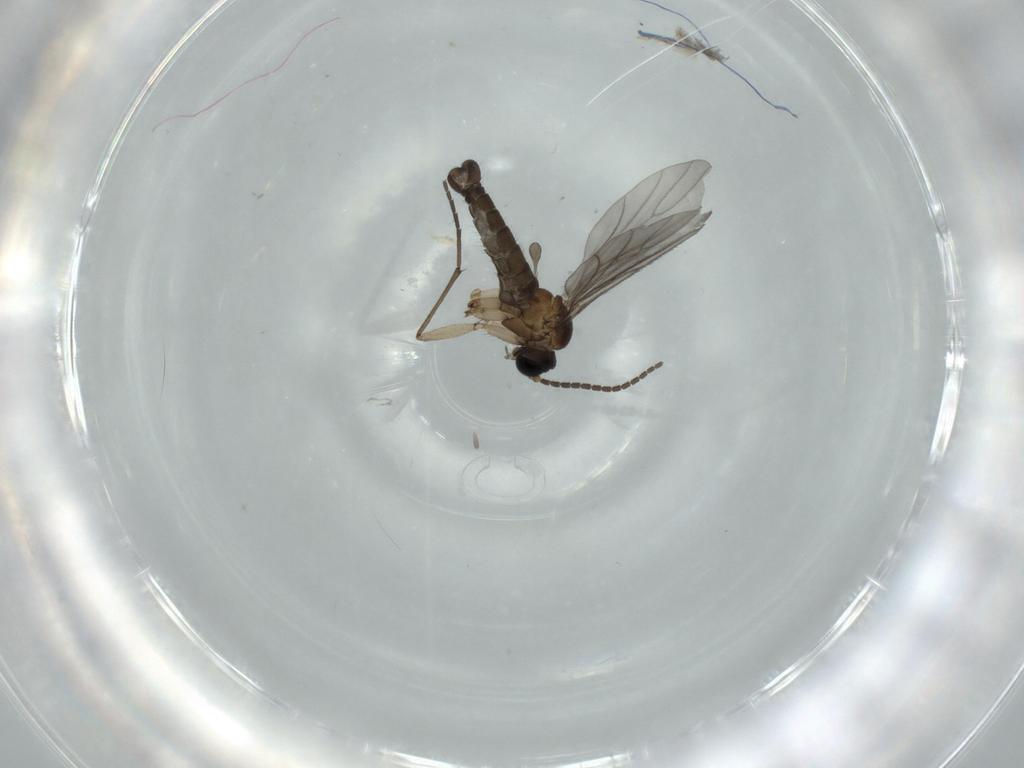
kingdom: Animalia
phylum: Arthropoda
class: Insecta
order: Diptera
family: Sciaridae
